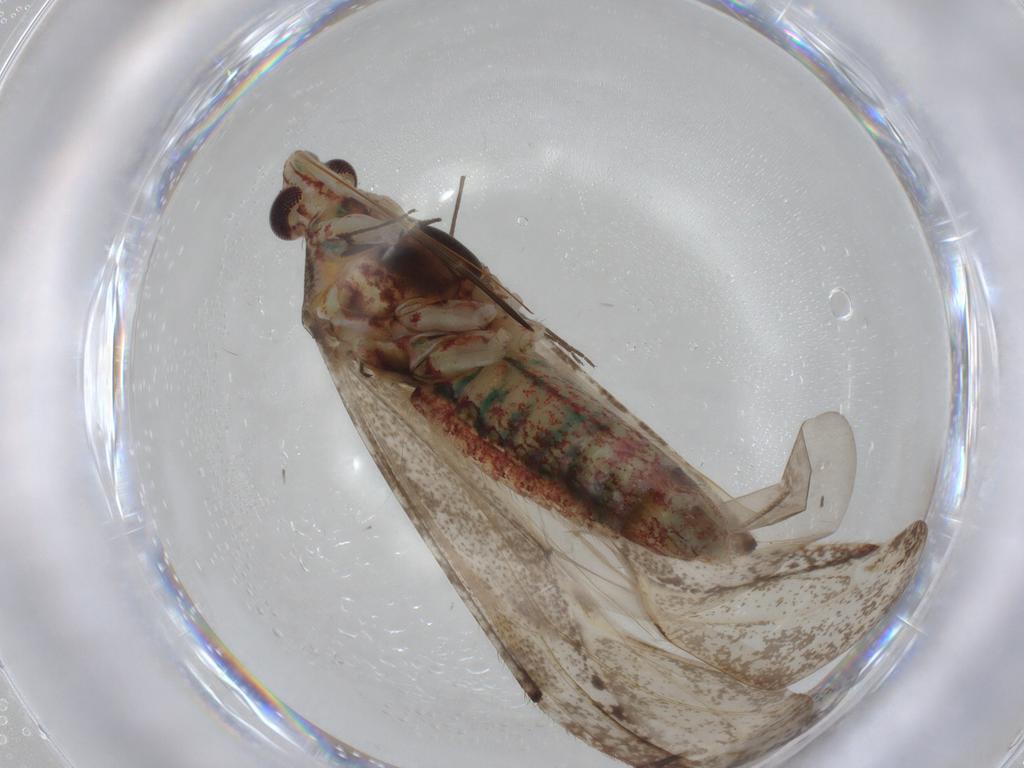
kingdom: Animalia
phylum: Arthropoda
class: Insecta
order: Hemiptera
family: Miridae
